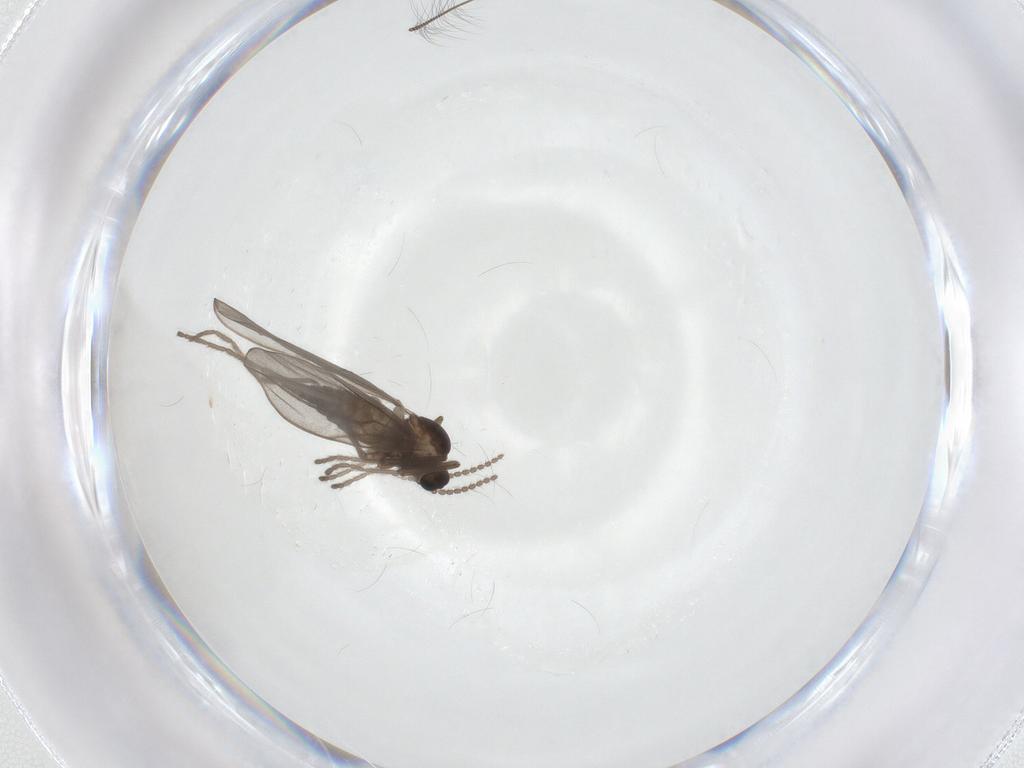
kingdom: Animalia
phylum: Arthropoda
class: Insecta
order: Diptera
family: Cecidomyiidae
